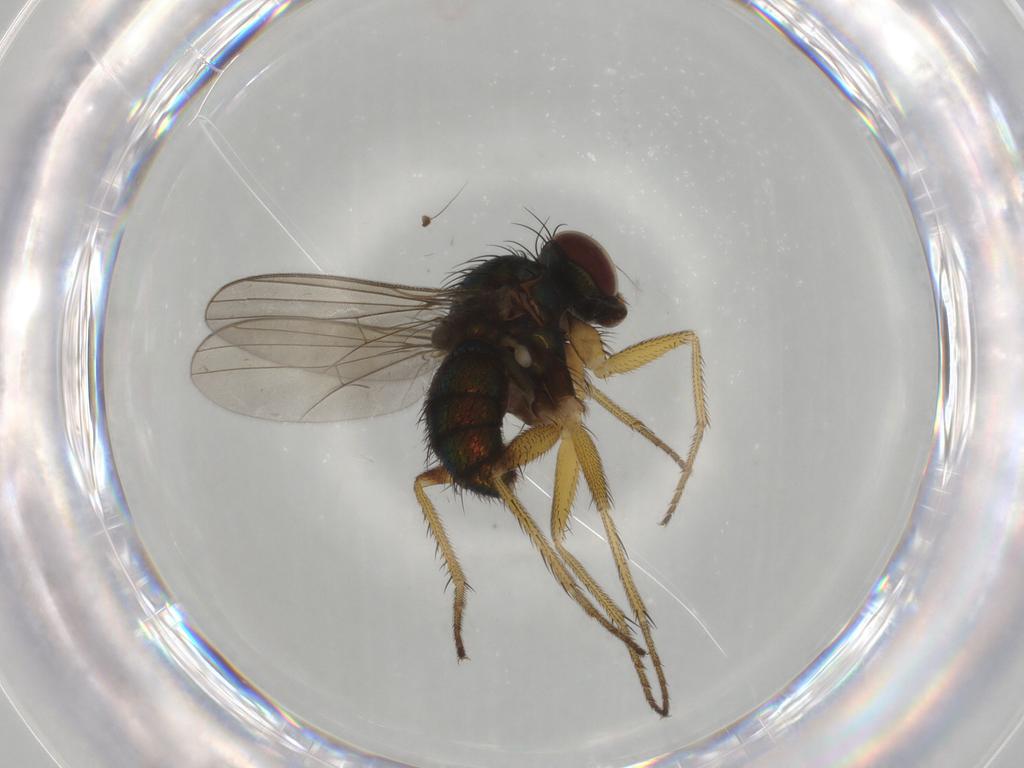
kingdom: Animalia
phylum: Arthropoda
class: Insecta
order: Diptera
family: Dolichopodidae
